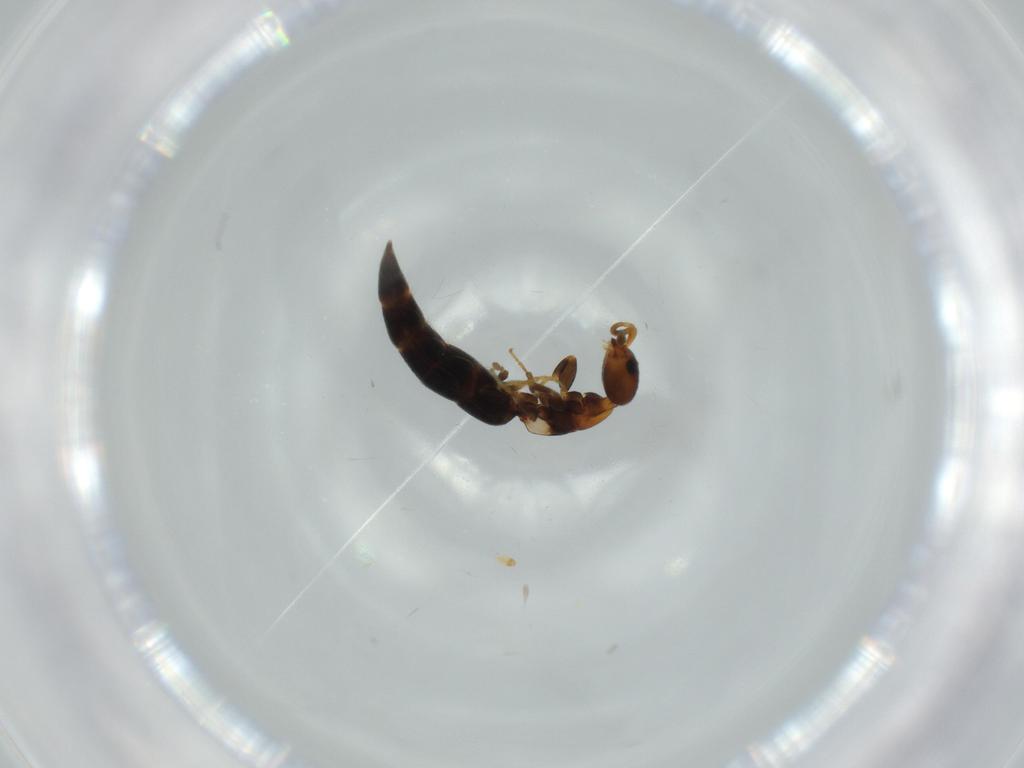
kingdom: Animalia
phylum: Arthropoda
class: Insecta
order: Hymenoptera
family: Bethylidae
